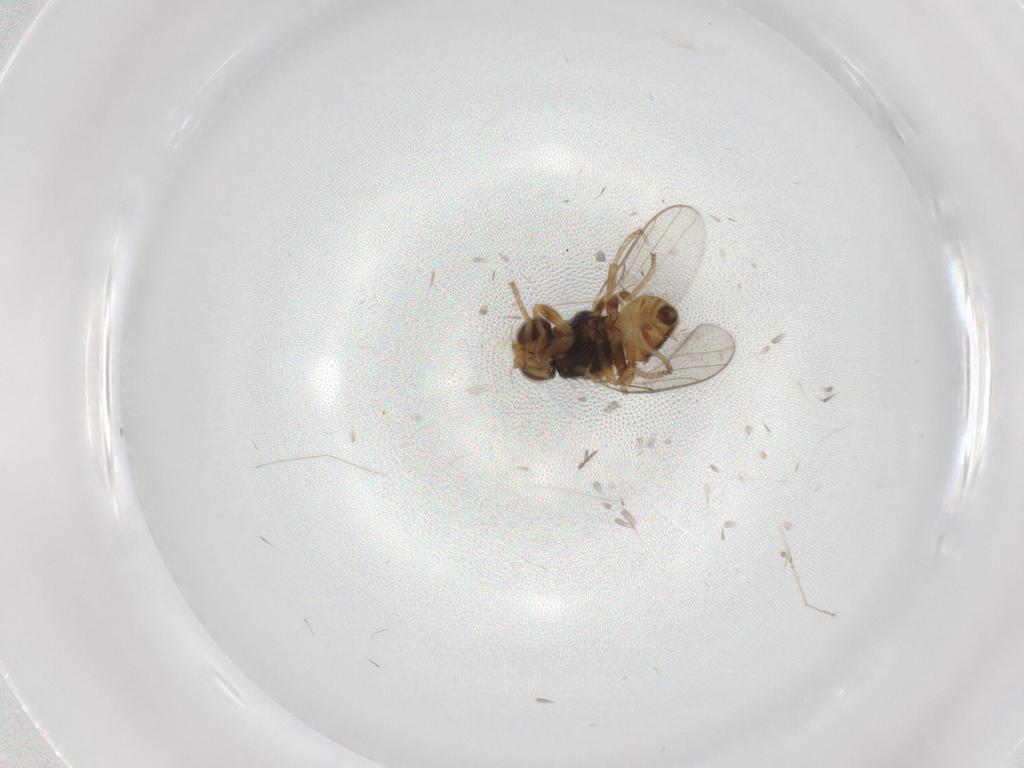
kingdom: Animalia
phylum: Arthropoda
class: Insecta
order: Diptera
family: Chloropidae
